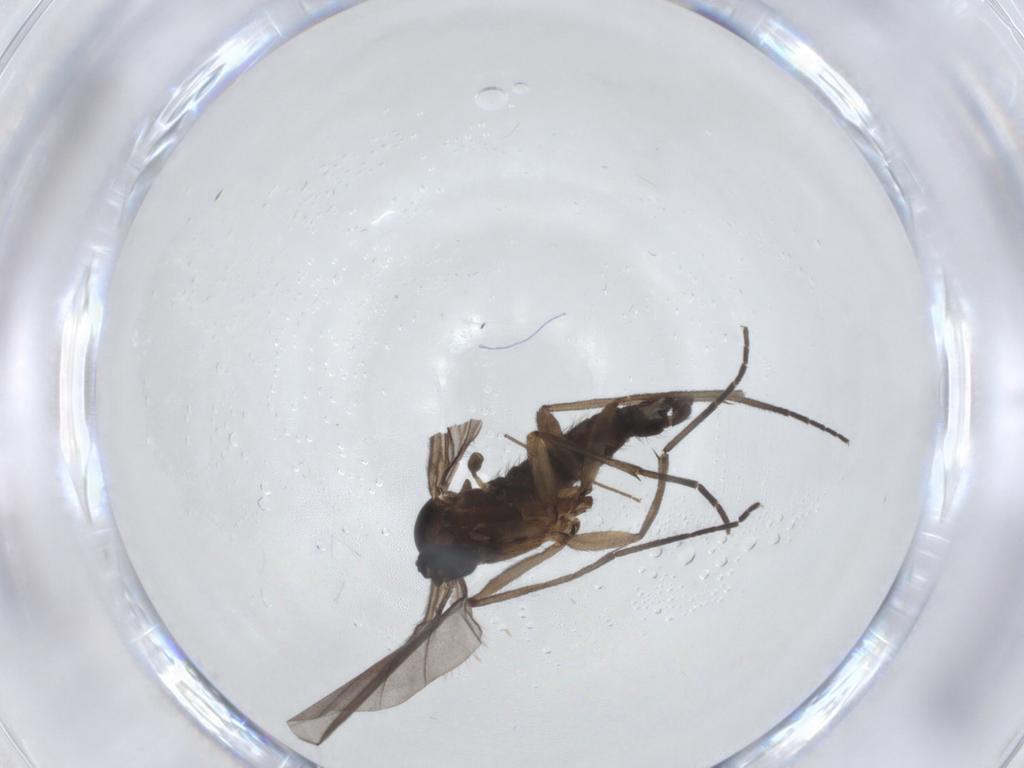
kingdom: Animalia
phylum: Arthropoda
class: Insecta
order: Diptera
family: Sciaridae
